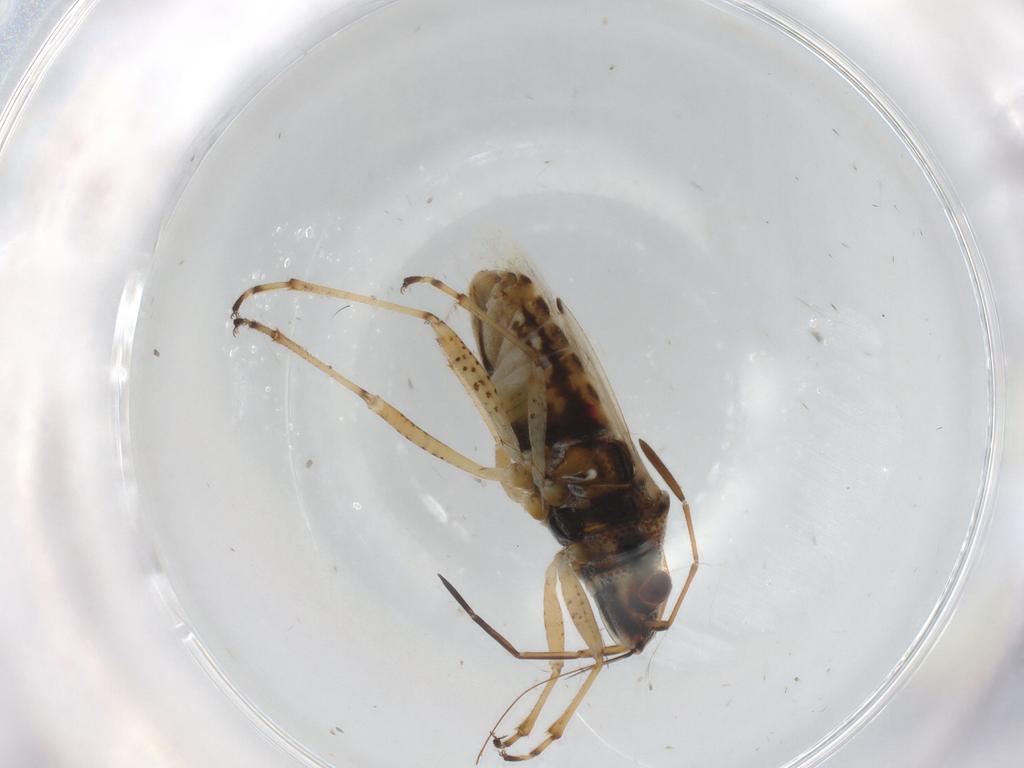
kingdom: Animalia
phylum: Arthropoda
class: Insecta
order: Hemiptera
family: Lygaeidae
